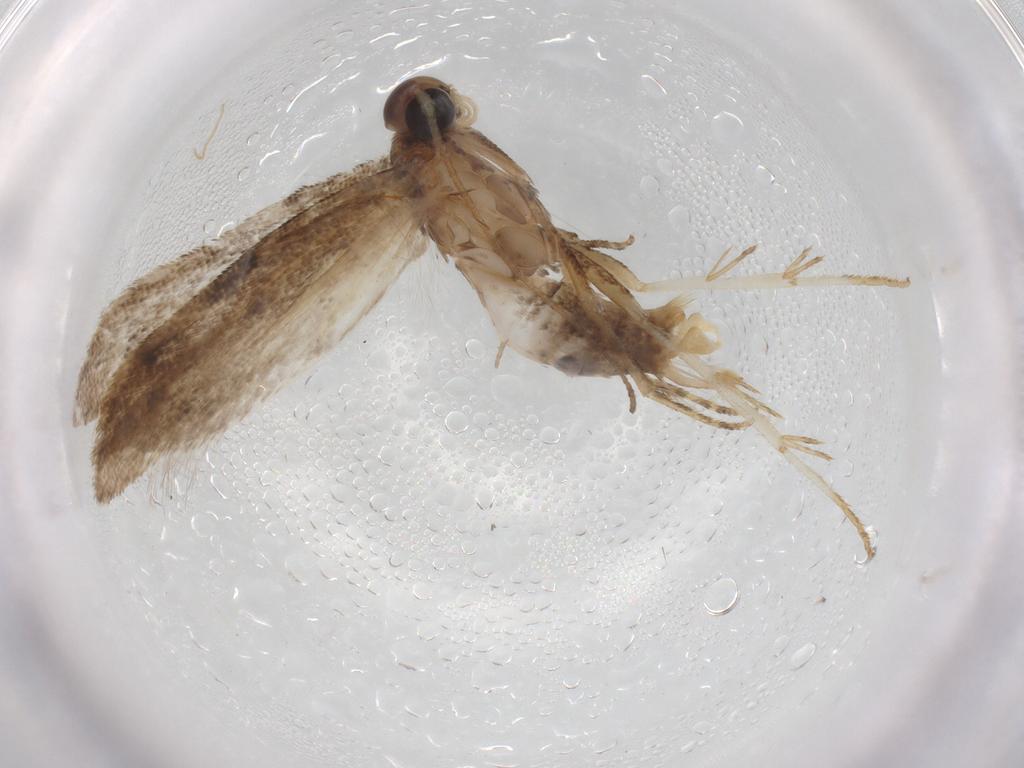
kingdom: Animalia
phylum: Arthropoda
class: Insecta
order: Lepidoptera
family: Gelechiidae
